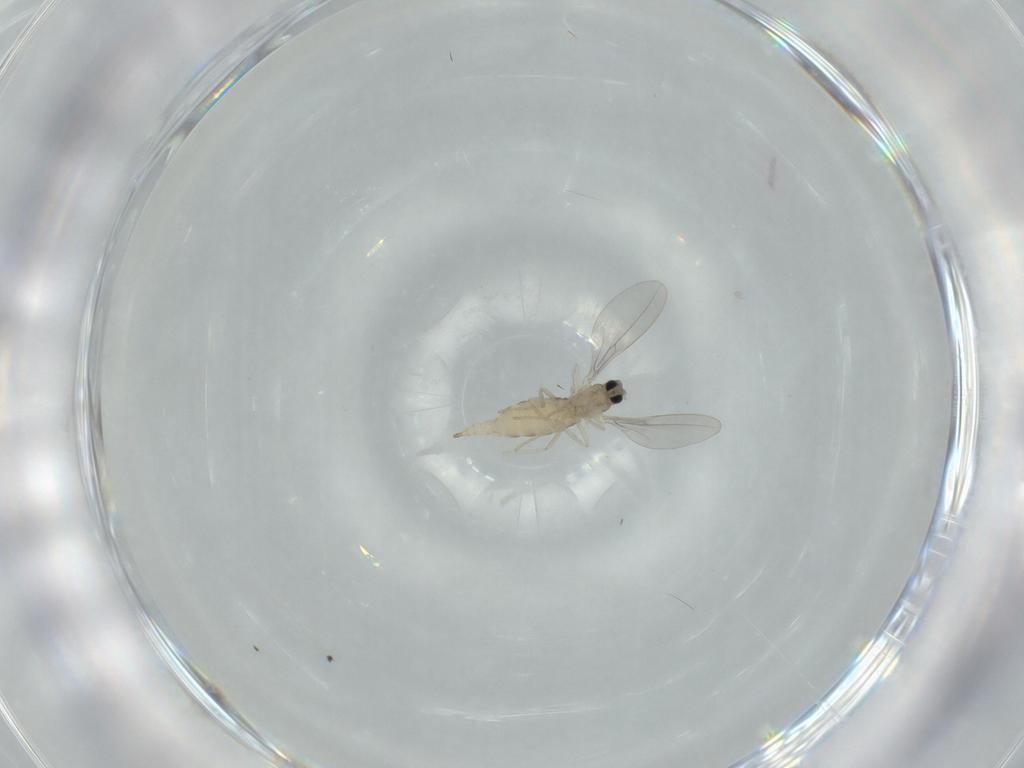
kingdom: Animalia
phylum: Arthropoda
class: Insecta
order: Diptera
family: Cecidomyiidae
